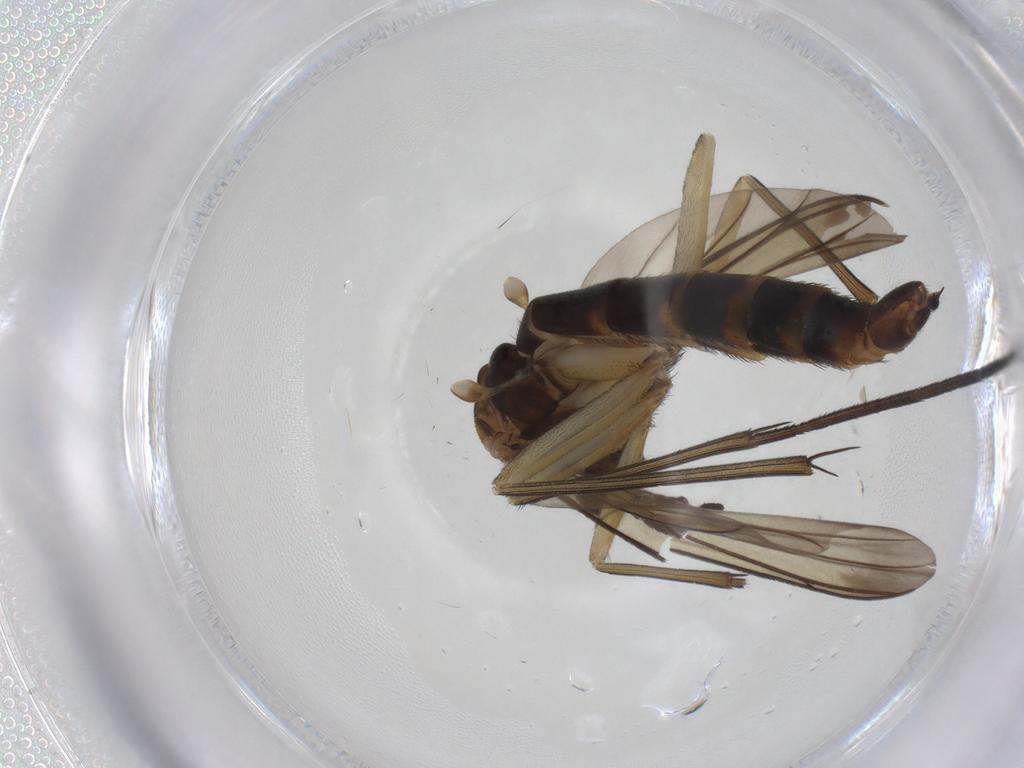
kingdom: Animalia
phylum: Arthropoda
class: Insecta
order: Diptera
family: Keroplatidae
